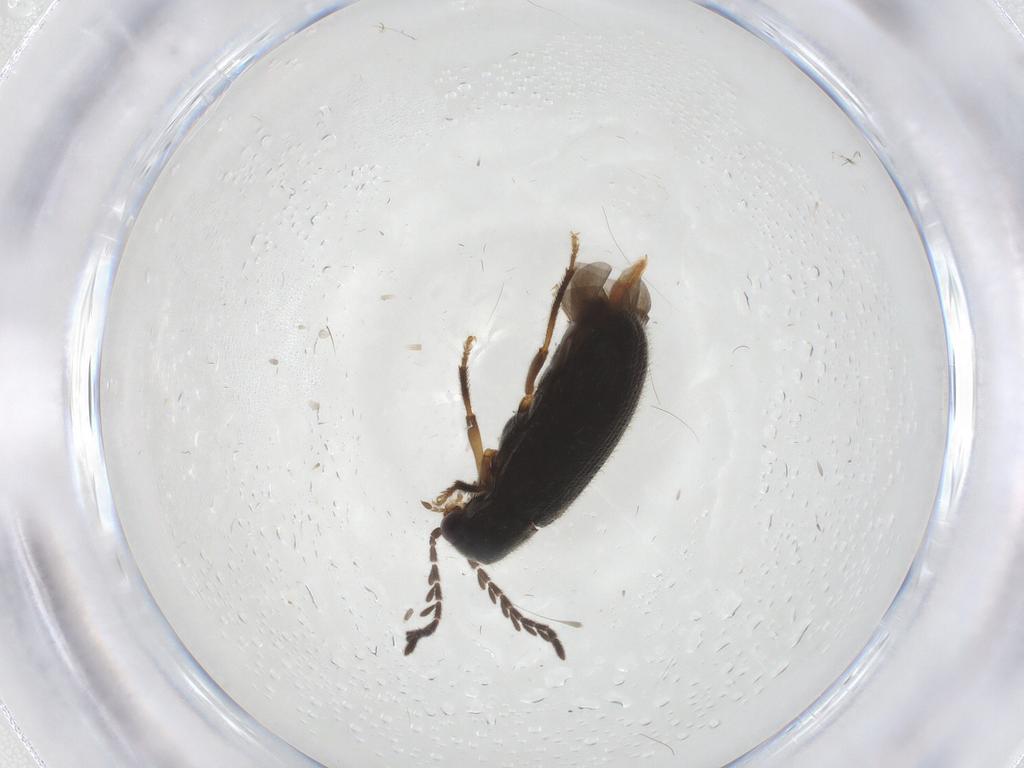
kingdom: Animalia
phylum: Arthropoda
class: Insecta
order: Coleoptera
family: Ptilodactylidae
